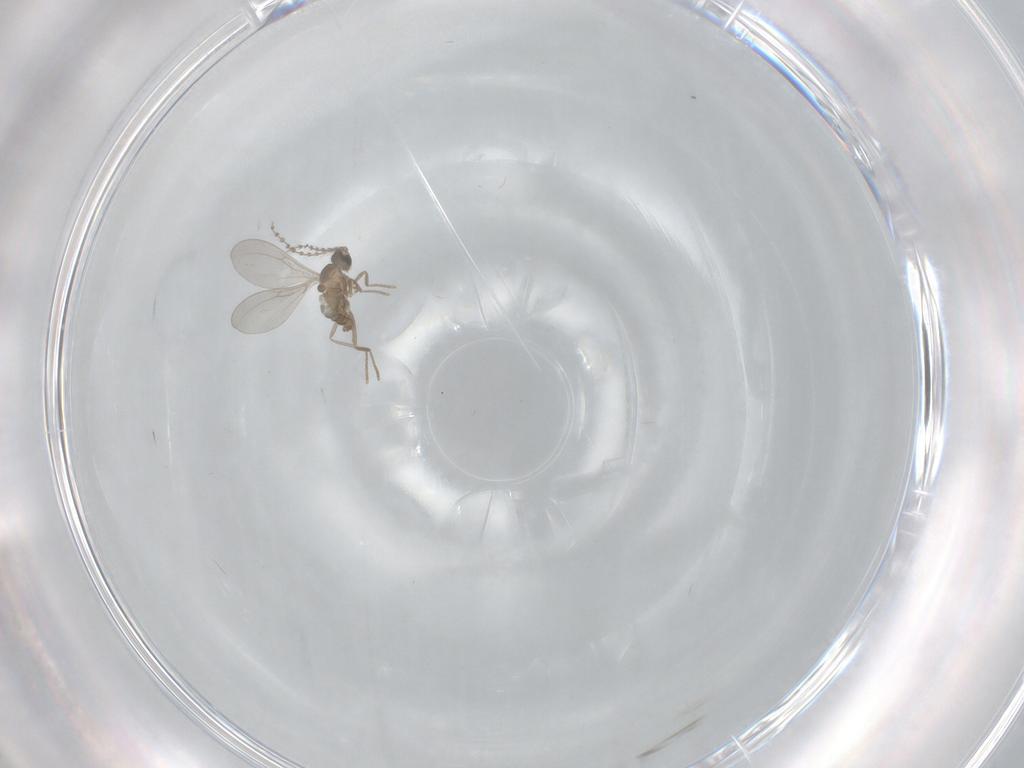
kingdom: Animalia
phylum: Arthropoda
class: Insecta
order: Diptera
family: Cecidomyiidae
